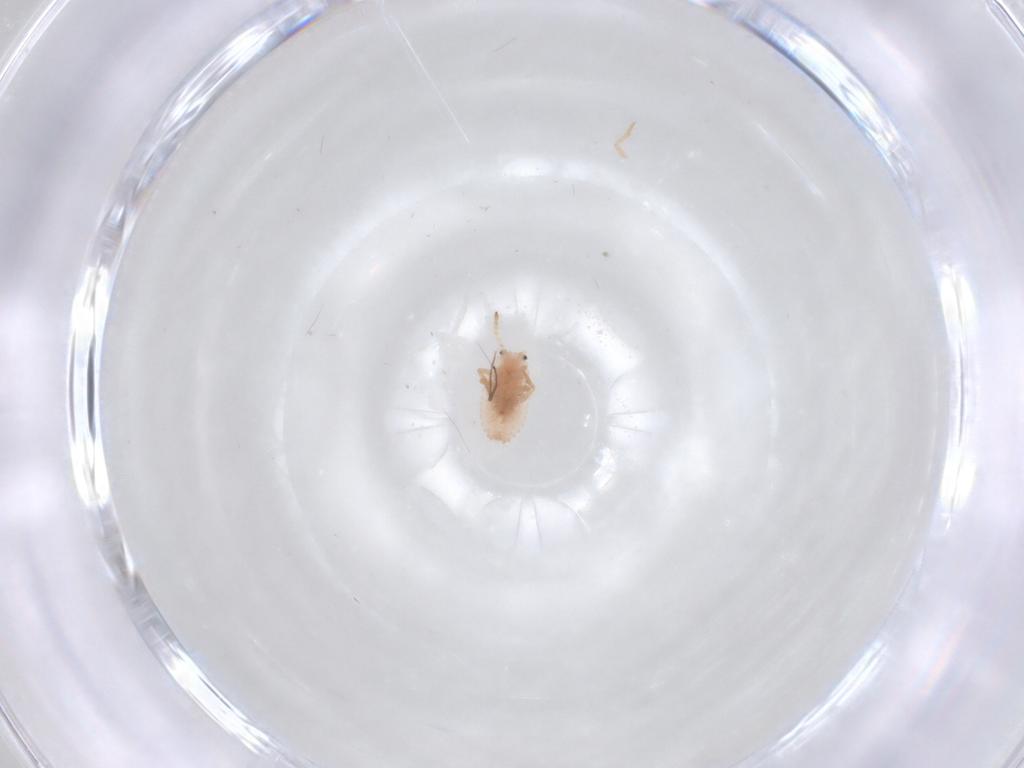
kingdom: Animalia
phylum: Arthropoda
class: Insecta
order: Hemiptera
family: Coccoidea_incertae_sedis
